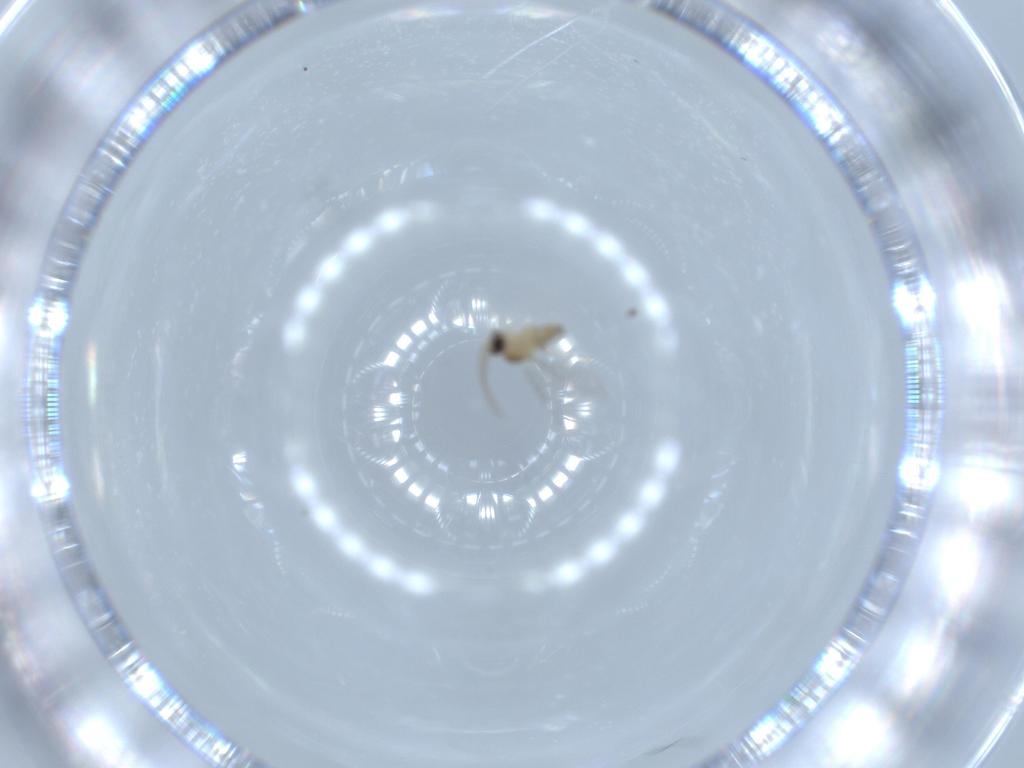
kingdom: Animalia
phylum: Arthropoda
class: Insecta
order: Diptera
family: Cecidomyiidae
